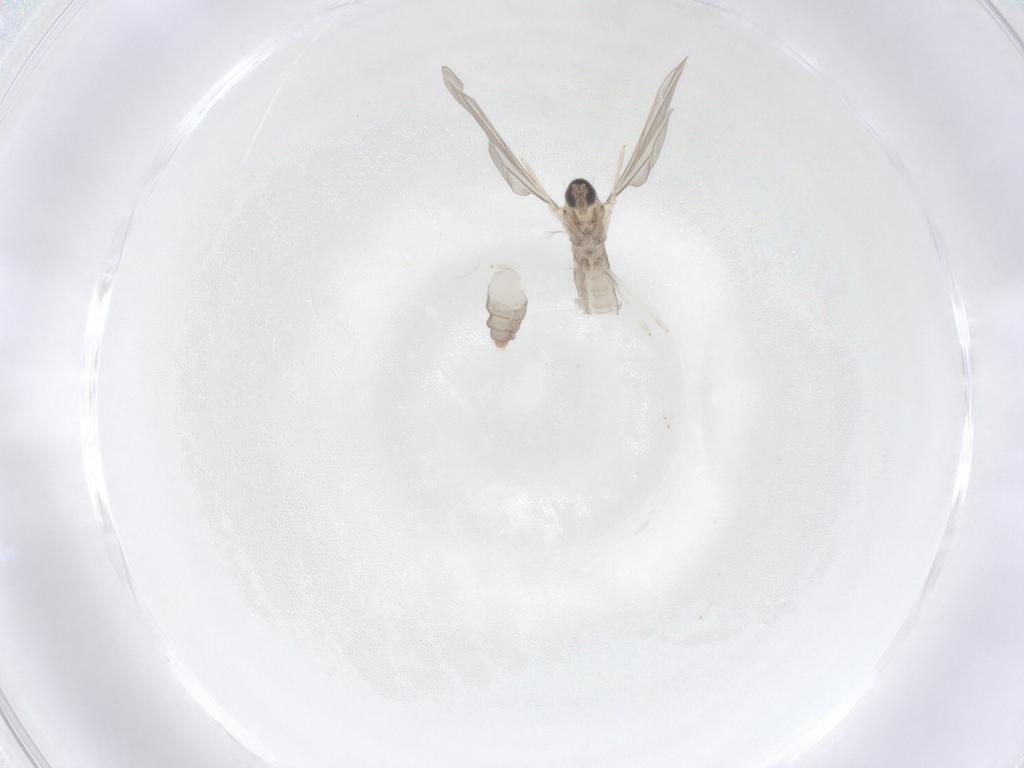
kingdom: Animalia
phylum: Arthropoda
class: Insecta
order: Diptera
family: Cecidomyiidae
